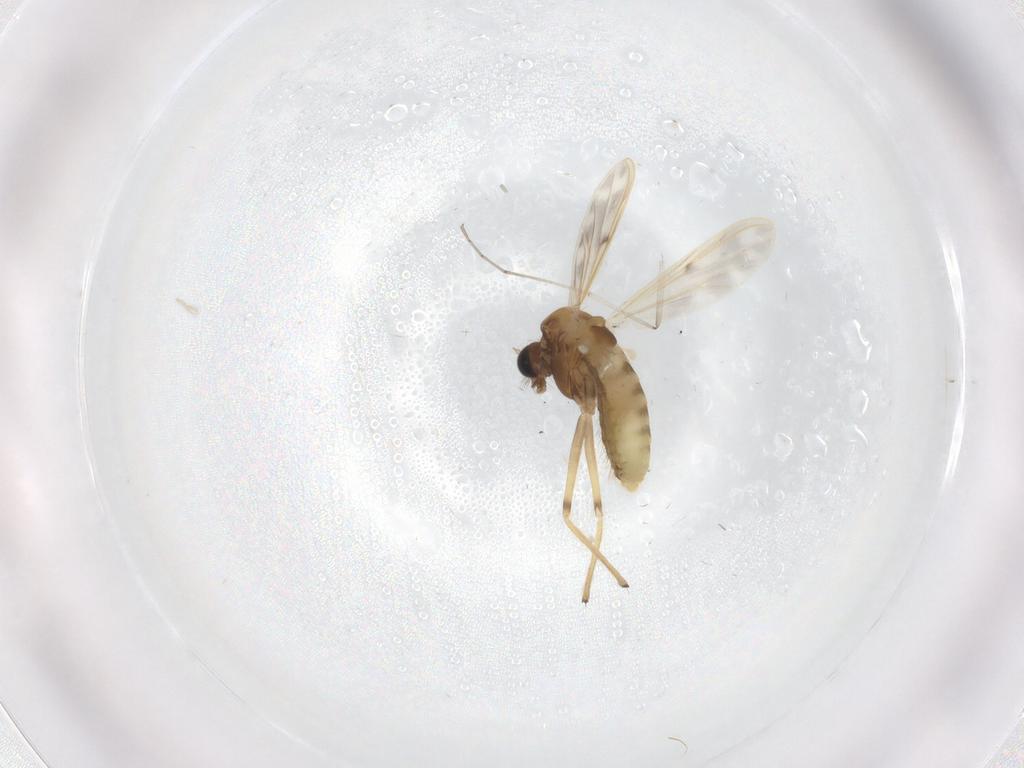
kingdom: Animalia
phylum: Arthropoda
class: Insecta
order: Diptera
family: Chironomidae
